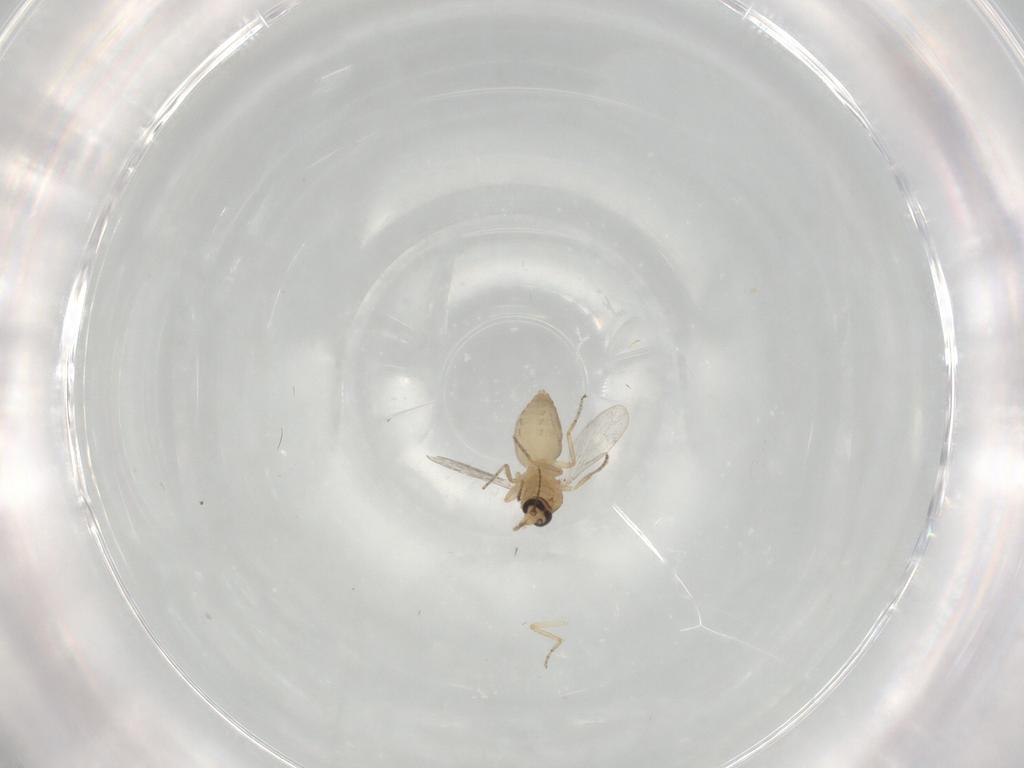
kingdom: Animalia
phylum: Arthropoda
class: Insecta
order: Diptera
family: Ceratopogonidae
